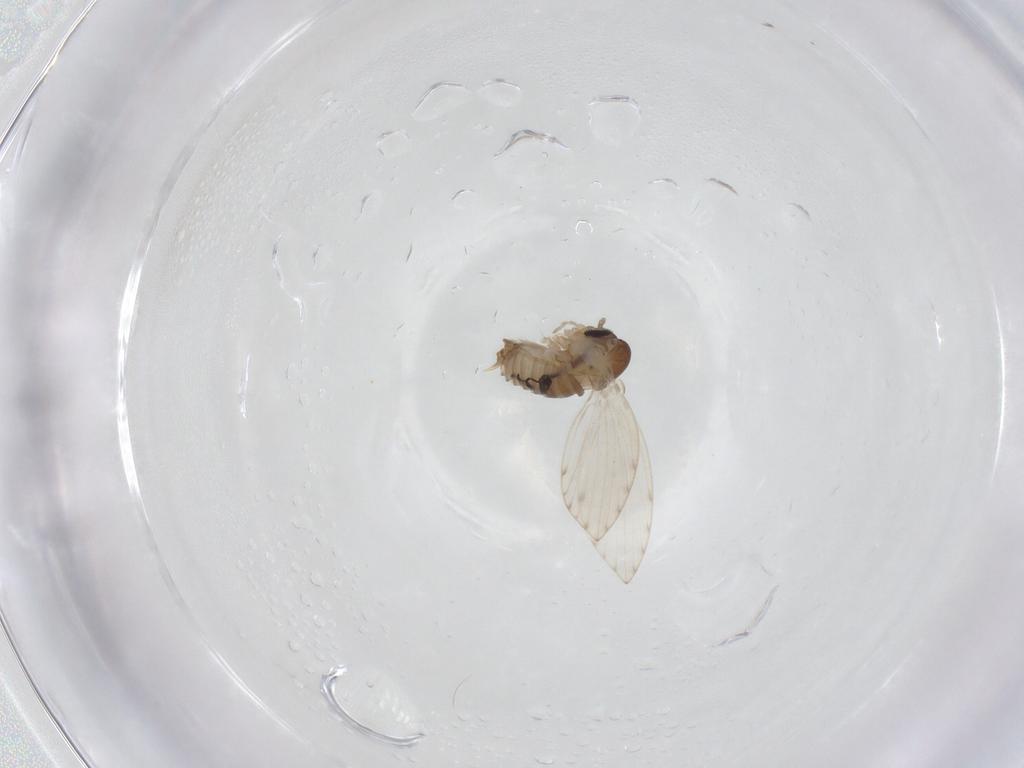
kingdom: Animalia
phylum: Arthropoda
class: Insecta
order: Diptera
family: Psychodidae
